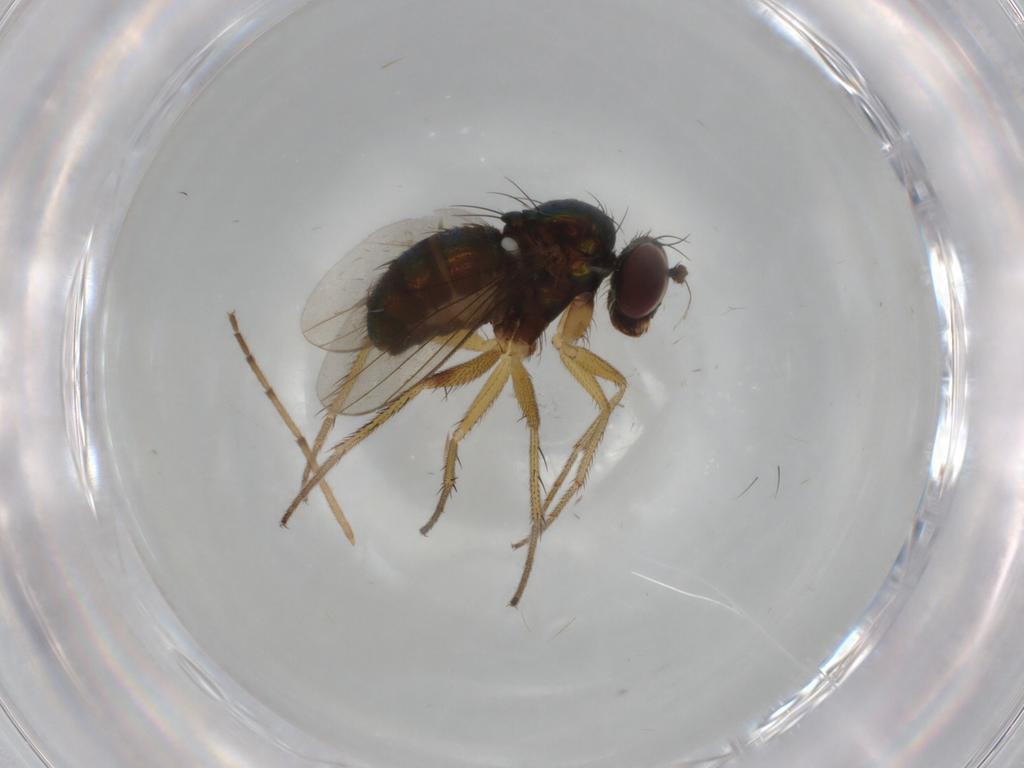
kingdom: Animalia
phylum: Arthropoda
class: Insecta
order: Diptera
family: Dolichopodidae
